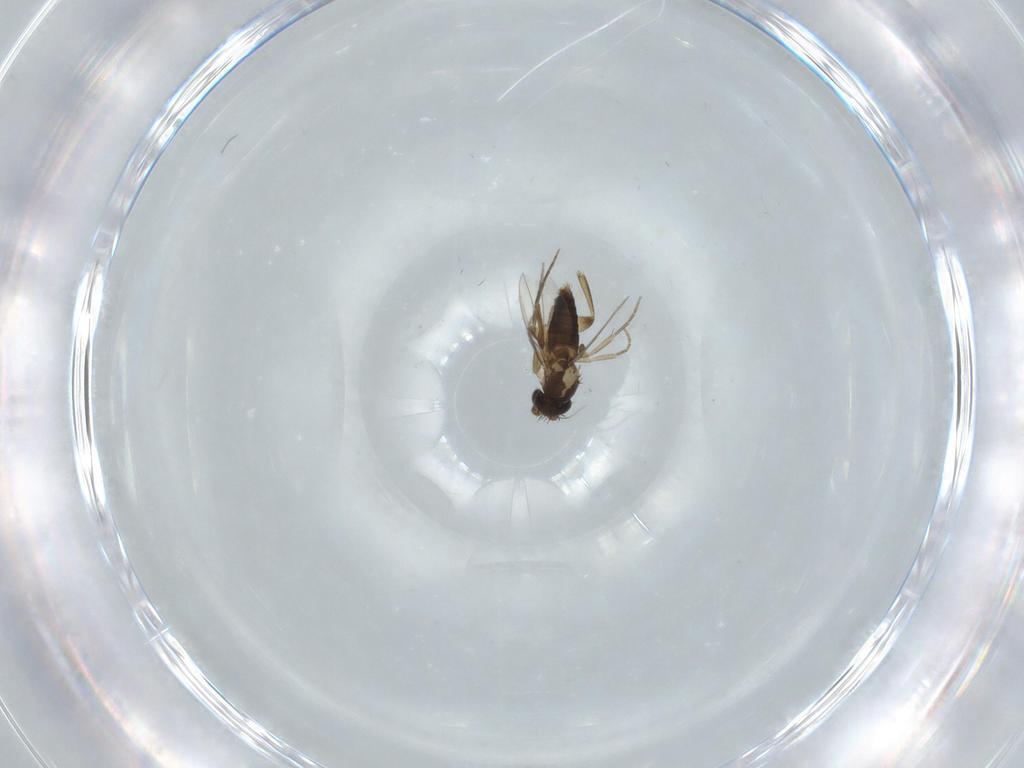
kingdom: Animalia
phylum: Arthropoda
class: Insecta
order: Diptera
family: Phoridae
